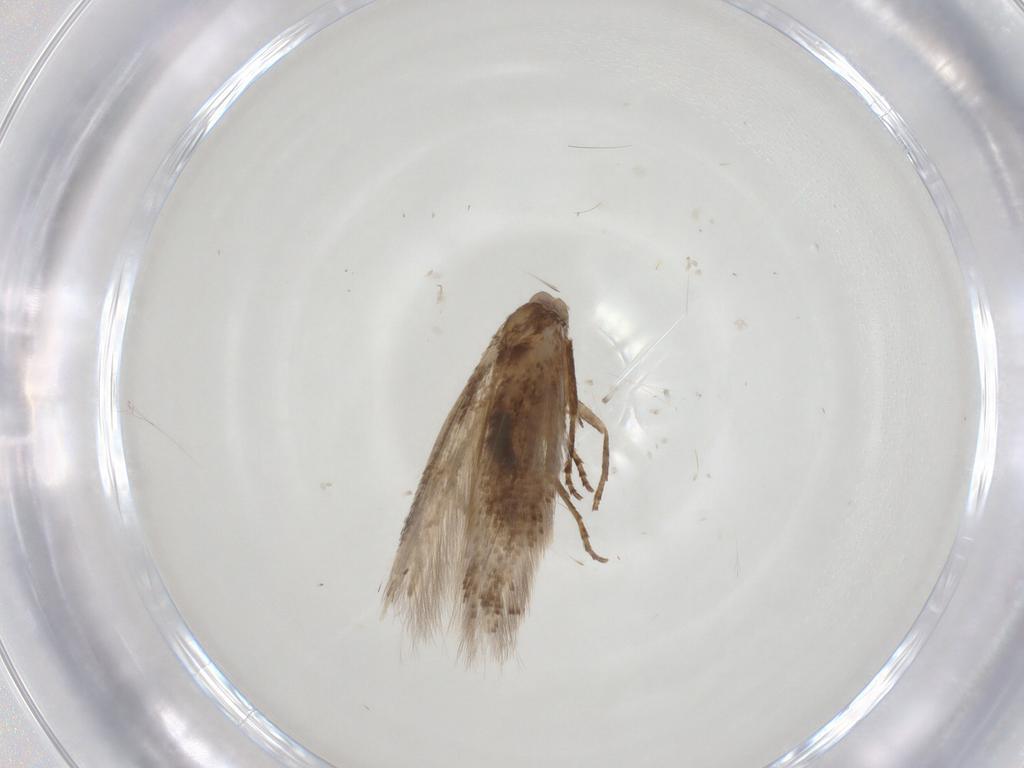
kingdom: Animalia
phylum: Arthropoda
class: Insecta
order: Lepidoptera
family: Bucculatricidae
